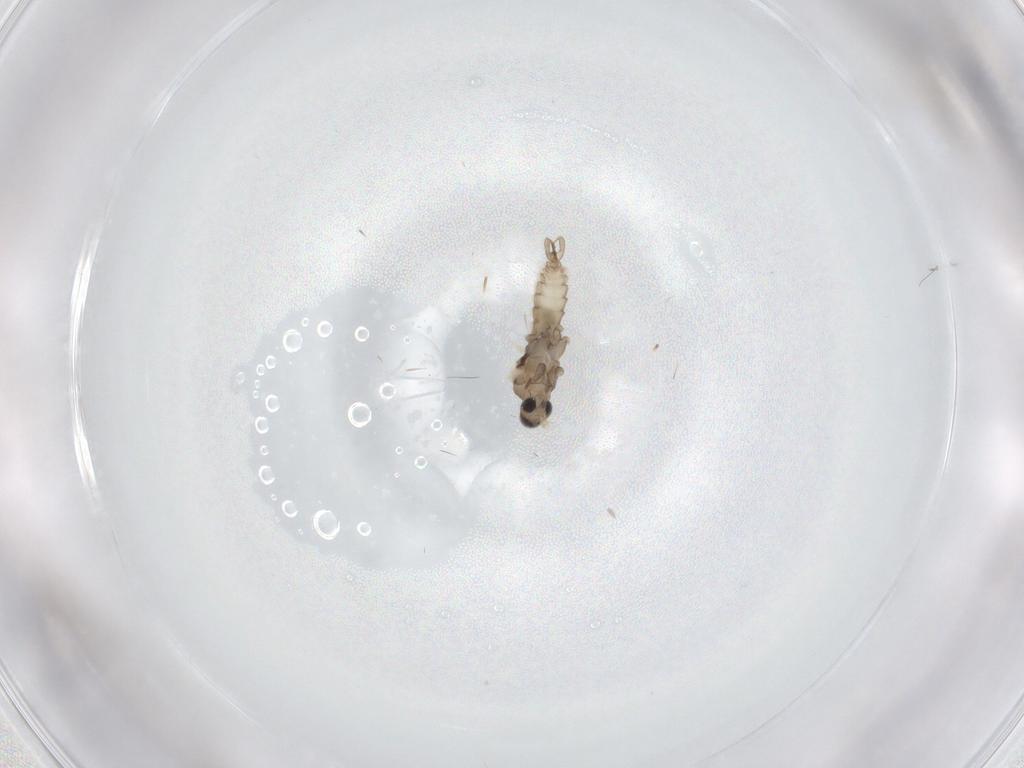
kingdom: Animalia
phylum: Arthropoda
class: Insecta
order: Diptera
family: Cecidomyiidae
